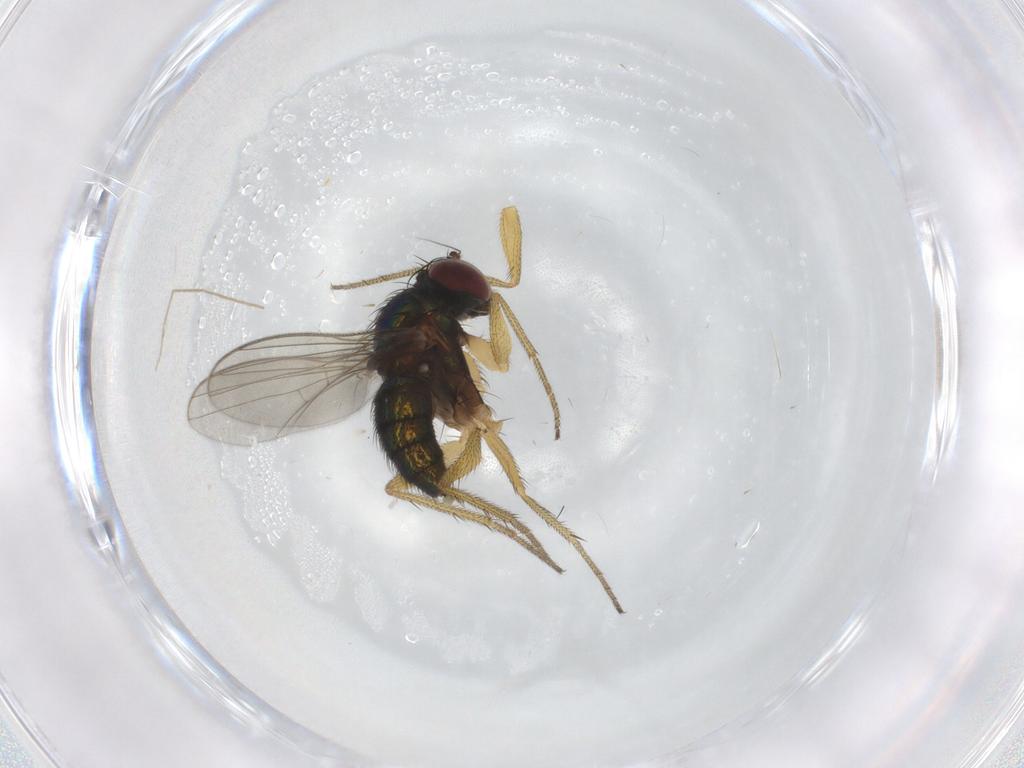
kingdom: Animalia
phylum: Arthropoda
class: Insecta
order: Diptera
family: Chironomidae
